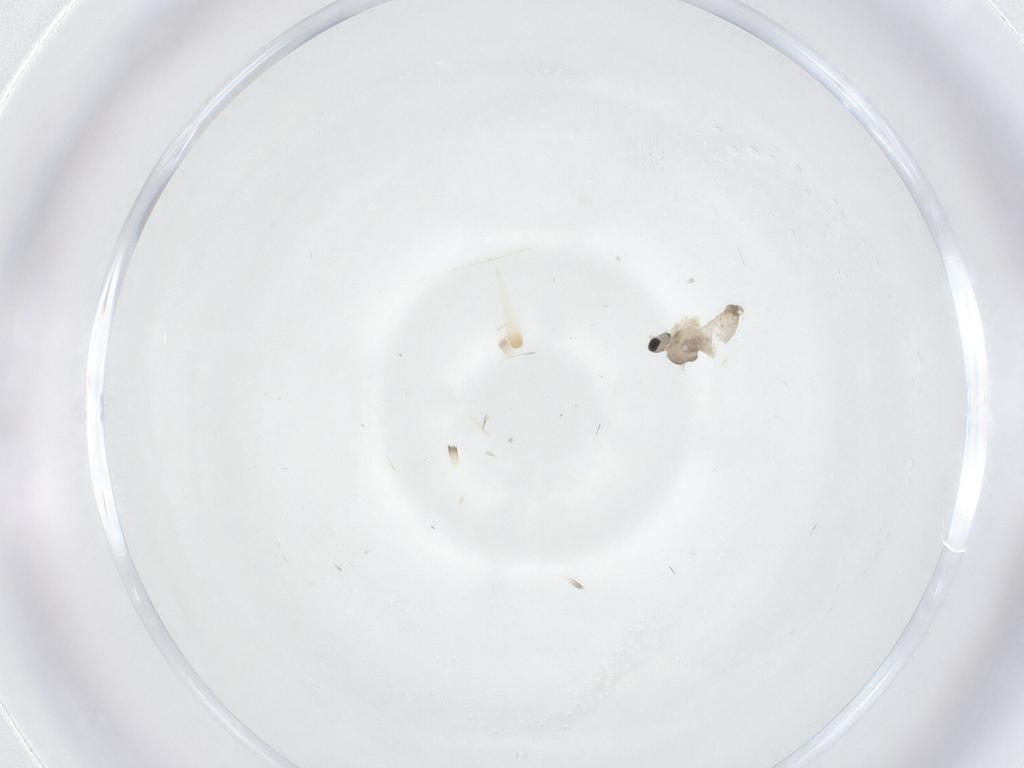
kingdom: Animalia
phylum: Arthropoda
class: Insecta
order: Diptera
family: Cecidomyiidae
